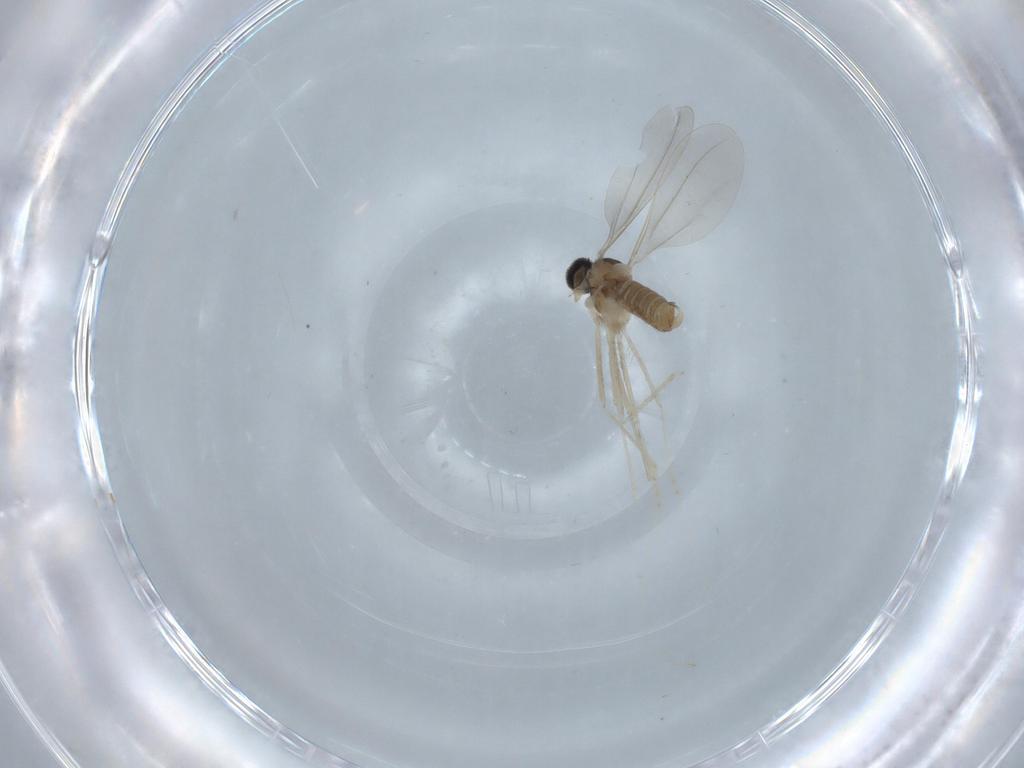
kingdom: Animalia
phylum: Arthropoda
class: Insecta
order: Diptera
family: Cecidomyiidae
